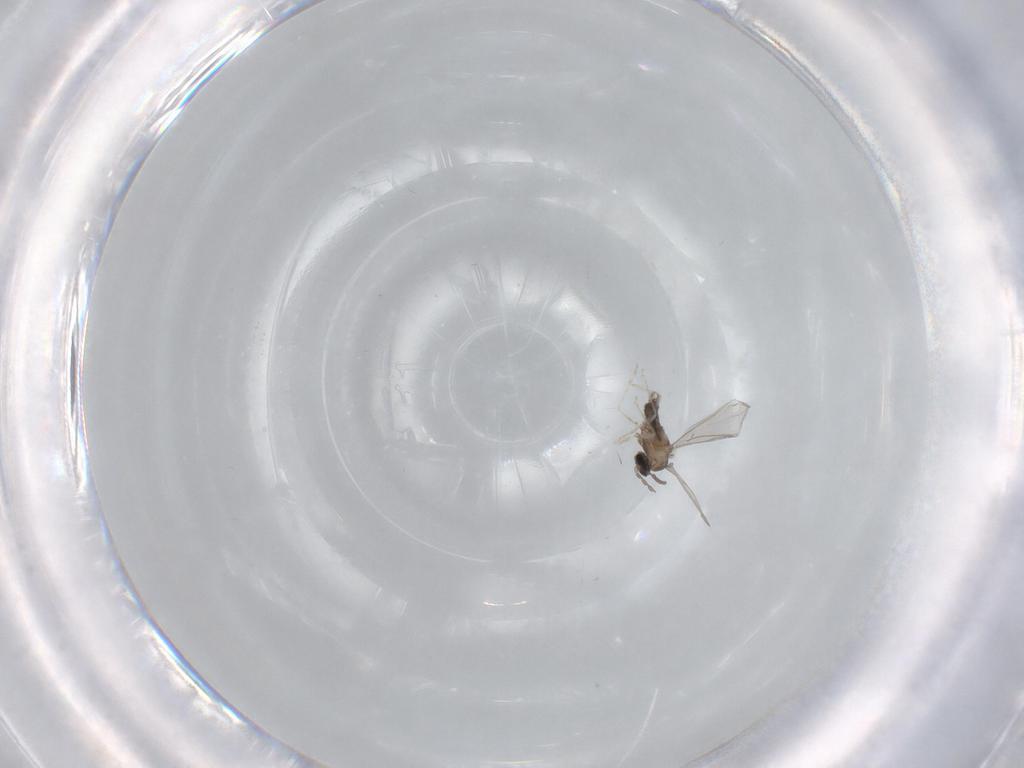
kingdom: Animalia
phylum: Arthropoda
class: Insecta
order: Diptera
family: Cecidomyiidae
